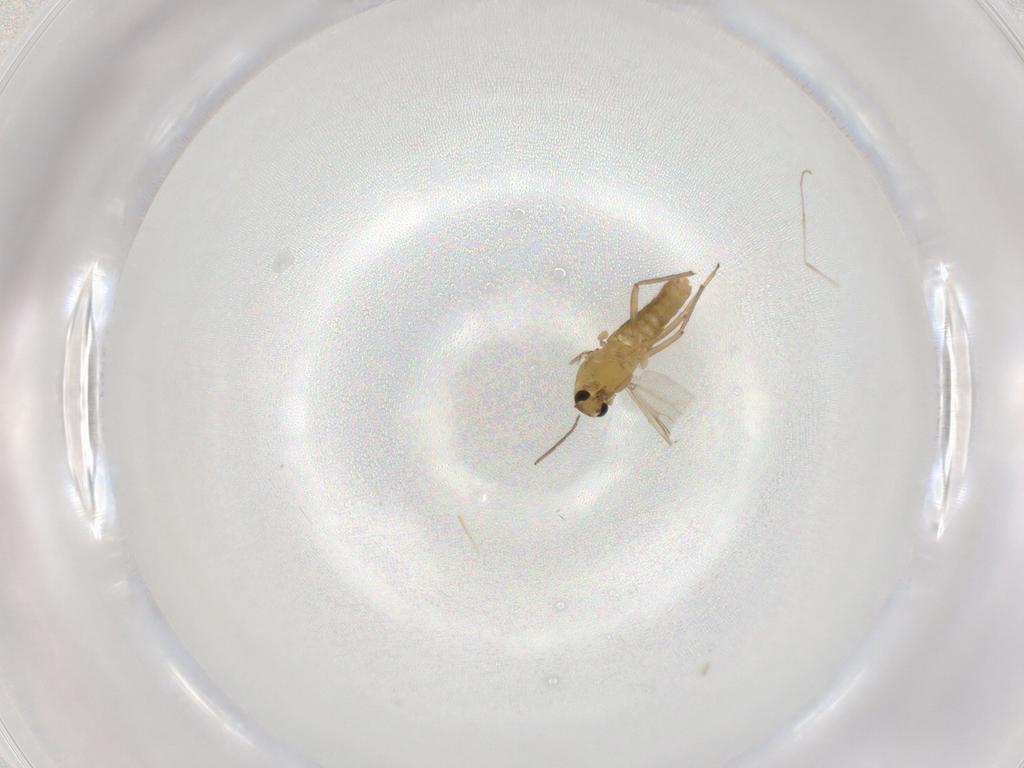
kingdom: Animalia
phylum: Arthropoda
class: Insecta
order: Diptera
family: Chironomidae
